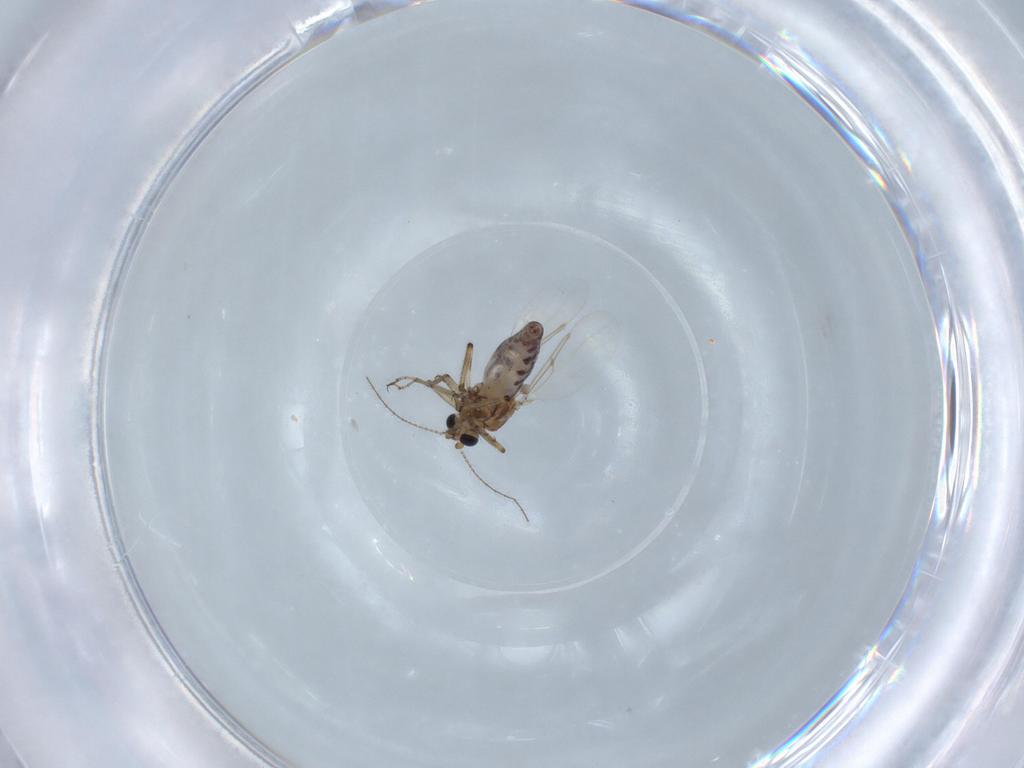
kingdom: Animalia
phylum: Arthropoda
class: Insecta
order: Diptera
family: Ceratopogonidae
